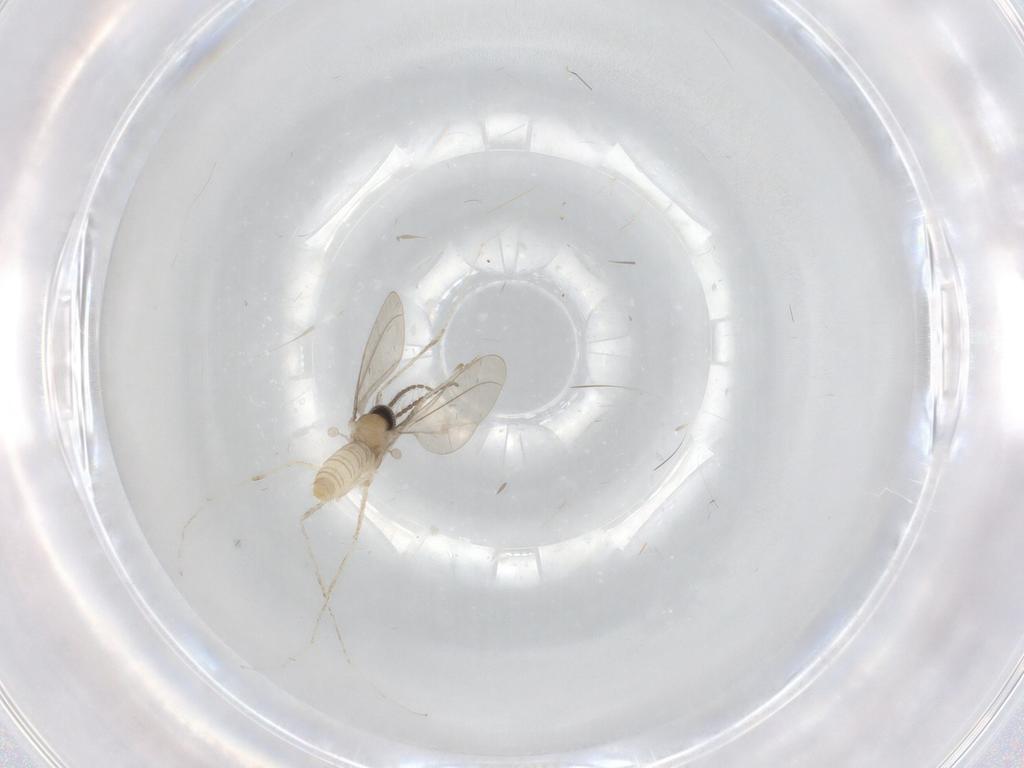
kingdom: Animalia
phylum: Arthropoda
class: Insecta
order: Diptera
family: Cecidomyiidae
